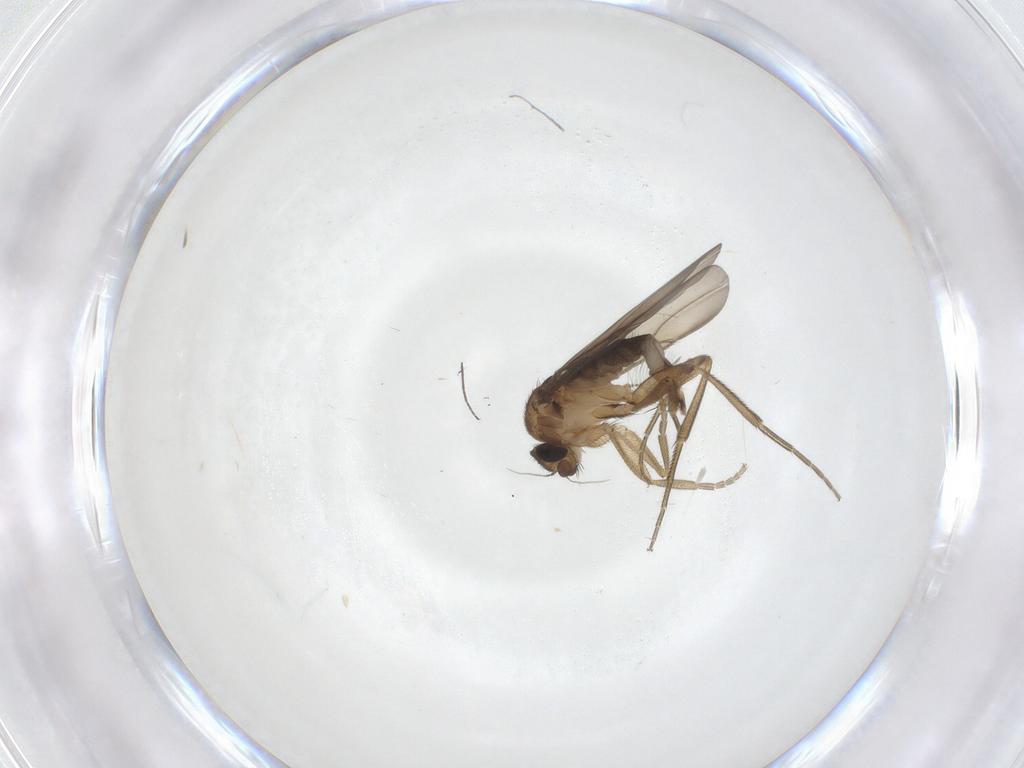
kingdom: Animalia
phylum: Arthropoda
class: Insecta
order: Diptera
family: Phoridae
